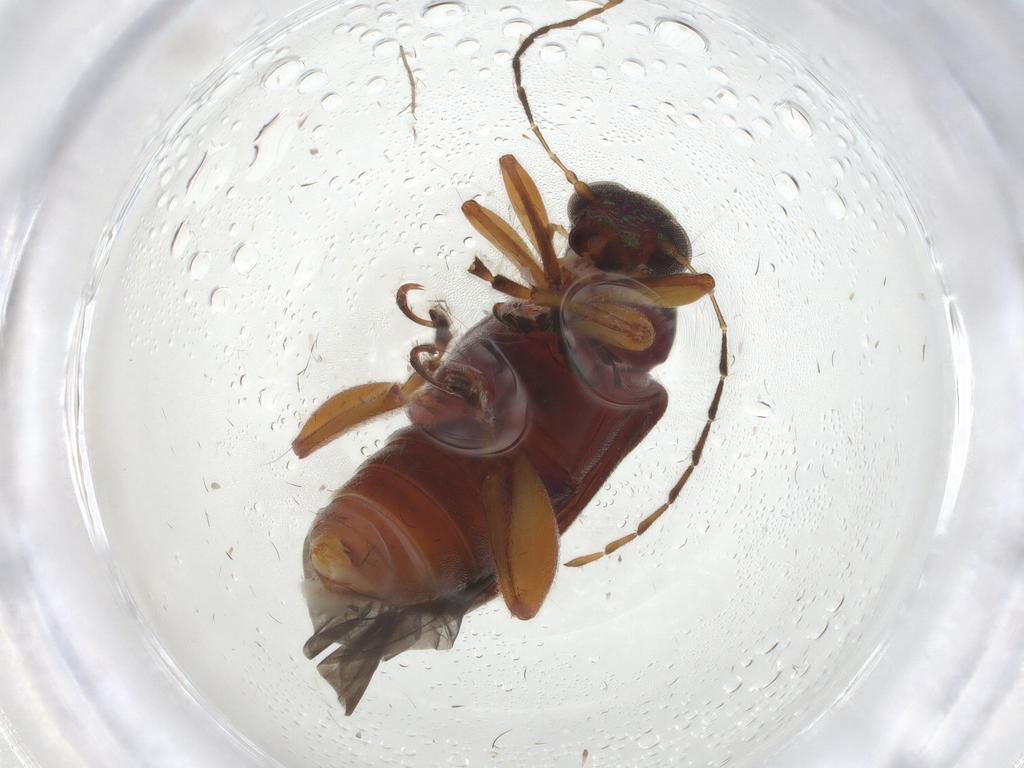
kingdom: Animalia
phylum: Arthropoda
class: Insecta
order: Coleoptera
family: Chrysomelidae
